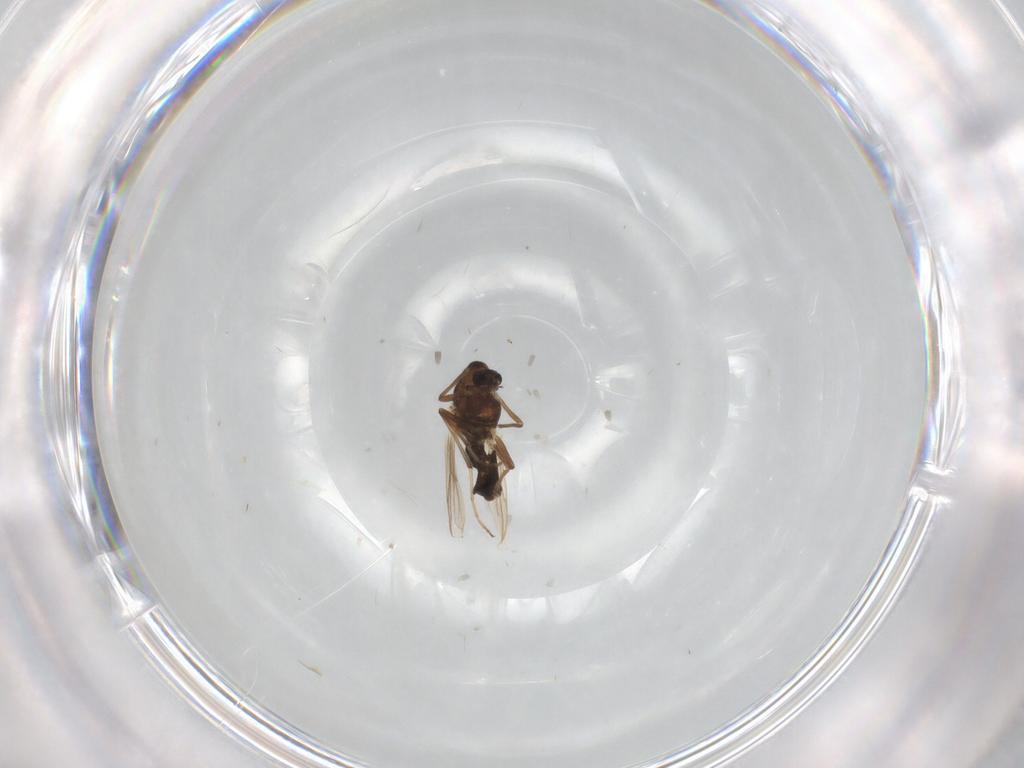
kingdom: Animalia
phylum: Arthropoda
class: Insecta
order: Diptera
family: Chironomidae
